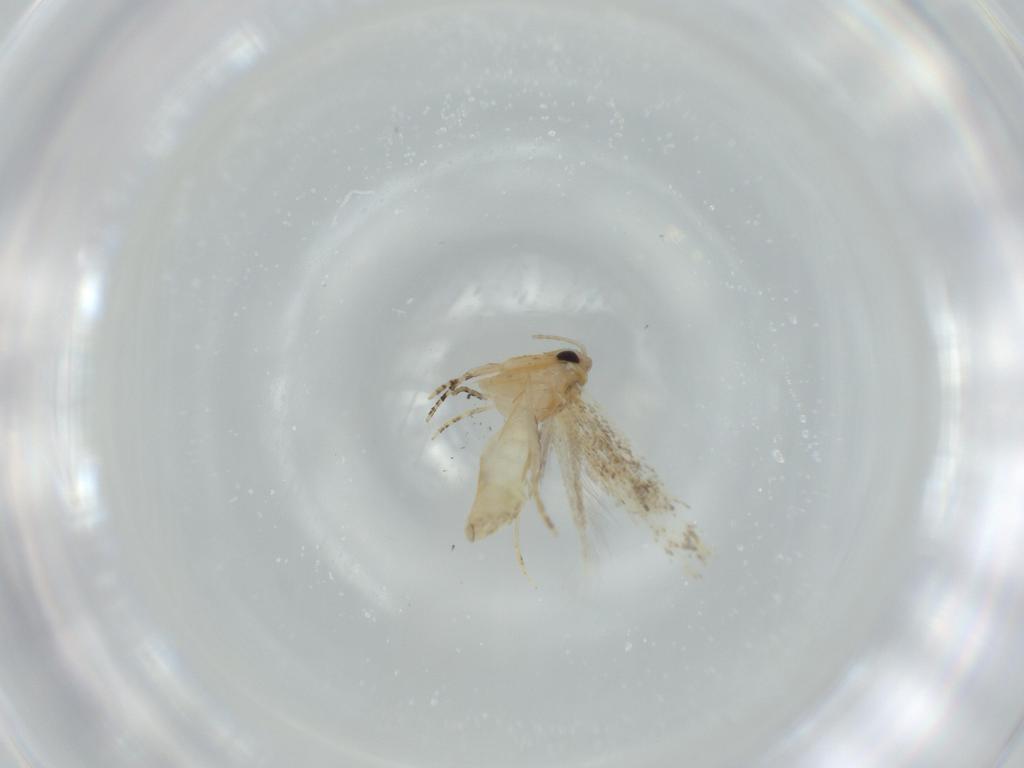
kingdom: Animalia
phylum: Arthropoda
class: Insecta
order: Lepidoptera
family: Bucculatricidae
